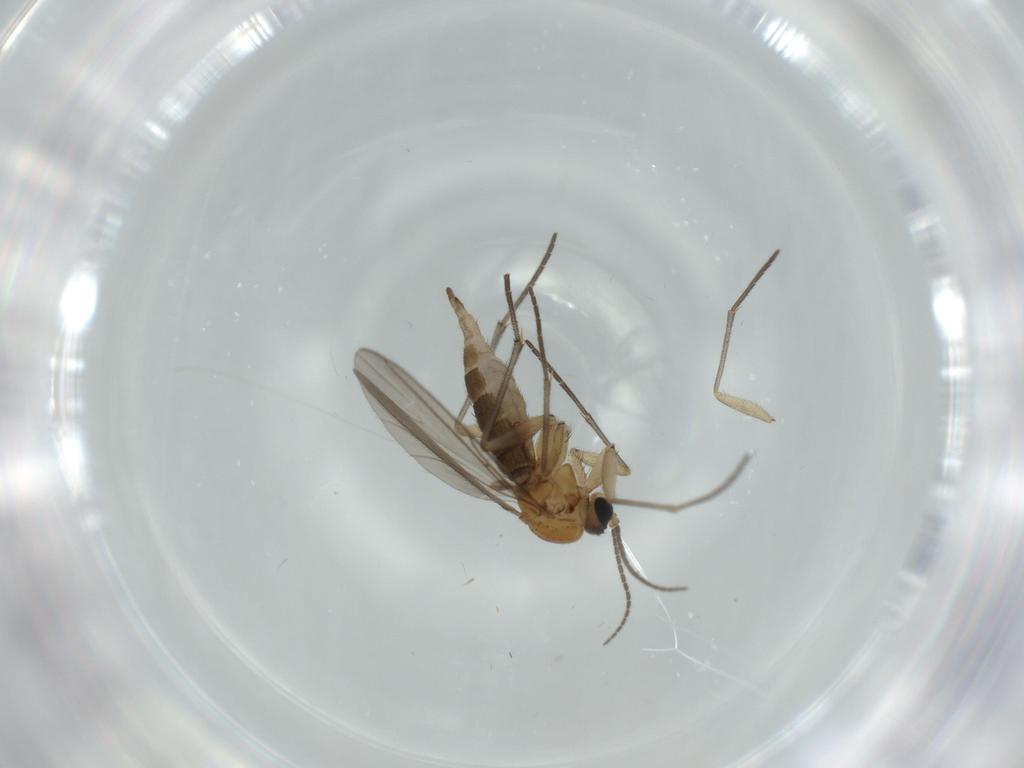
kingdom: Animalia
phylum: Arthropoda
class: Insecta
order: Diptera
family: Sciaridae
